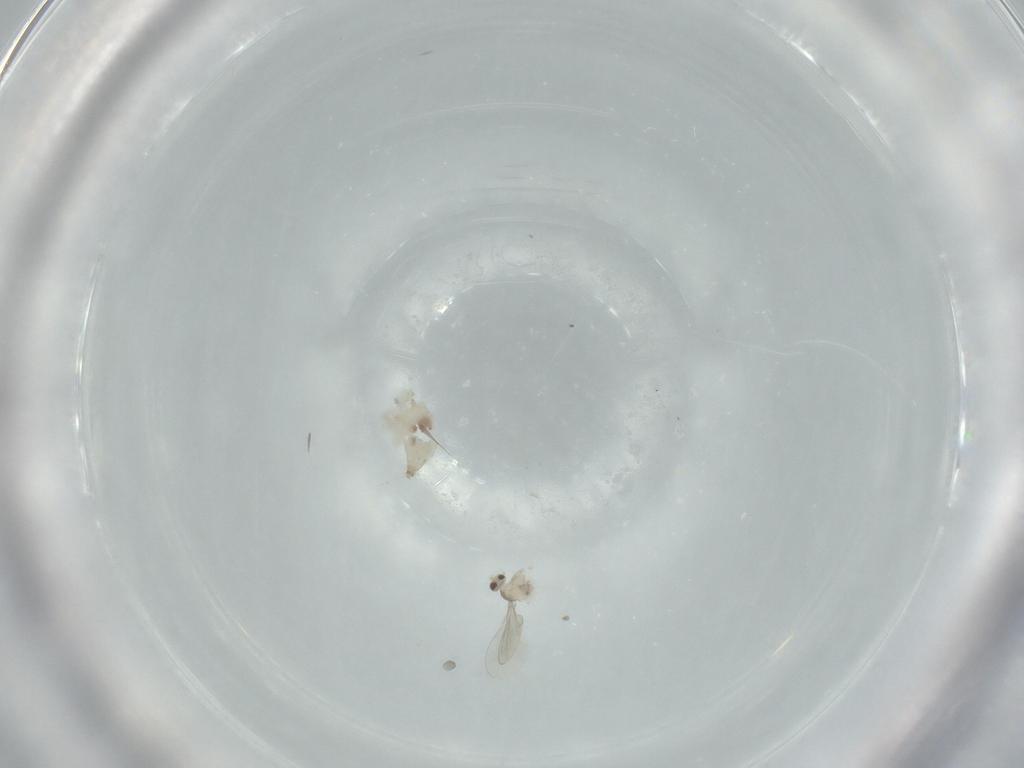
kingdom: Animalia
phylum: Arthropoda
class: Insecta
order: Diptera
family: Cecidomyiidae
